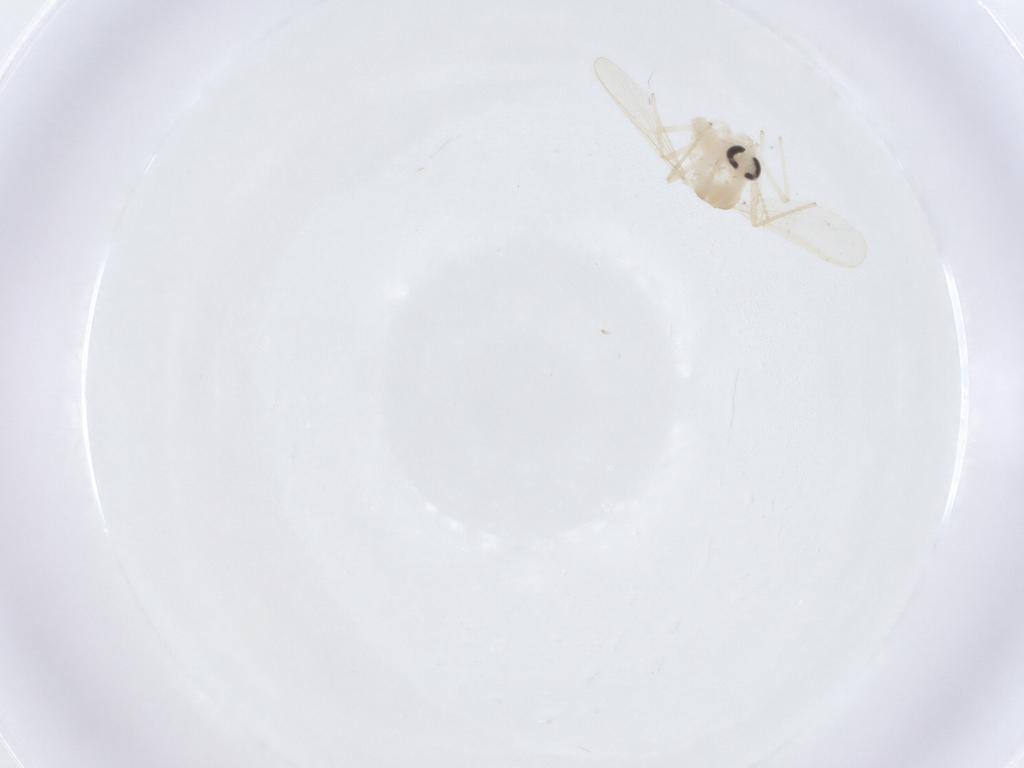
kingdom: Animalia
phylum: Arthropoda
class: Insecta
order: Diptera
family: Chironomidae
